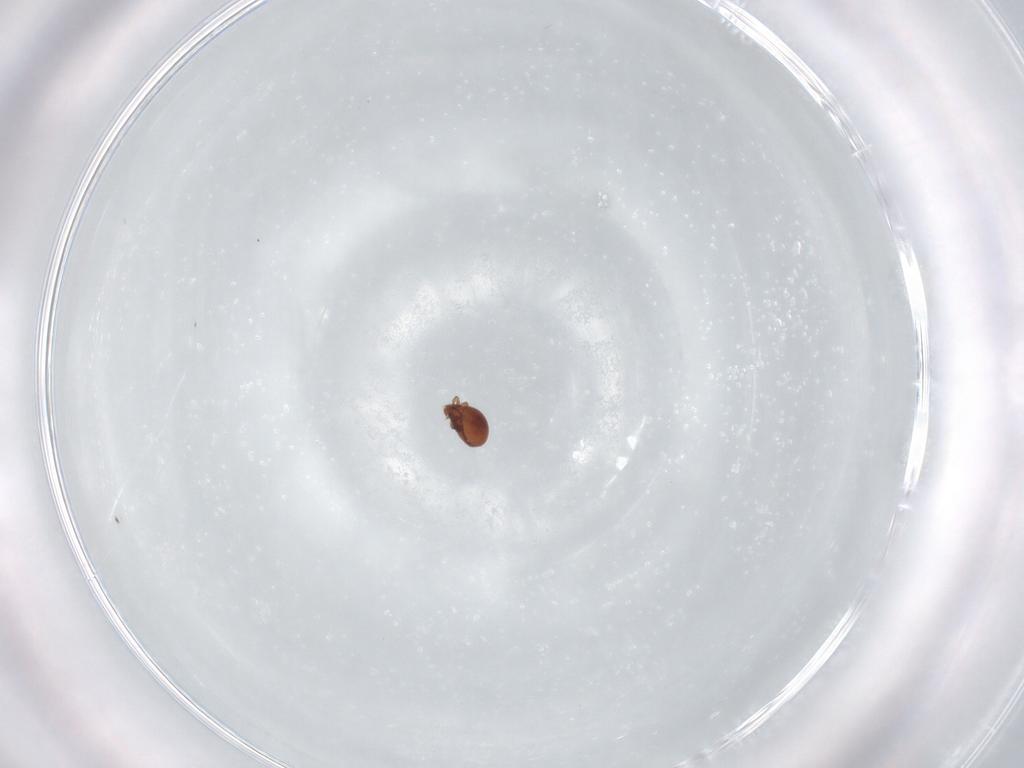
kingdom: Animalia
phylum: Arthropoda
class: Arachnida
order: Sarcoptiformes
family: Peloppiidae
